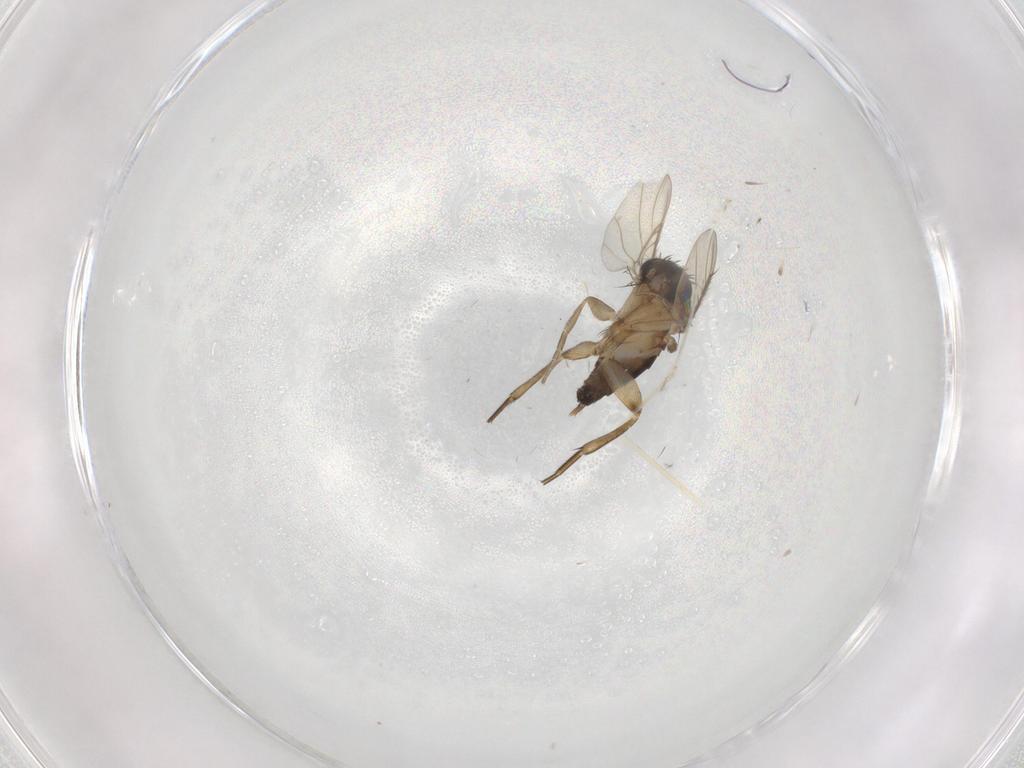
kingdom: Animalia
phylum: Arthropoda
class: Insecta
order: Diptera
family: Phoridae
